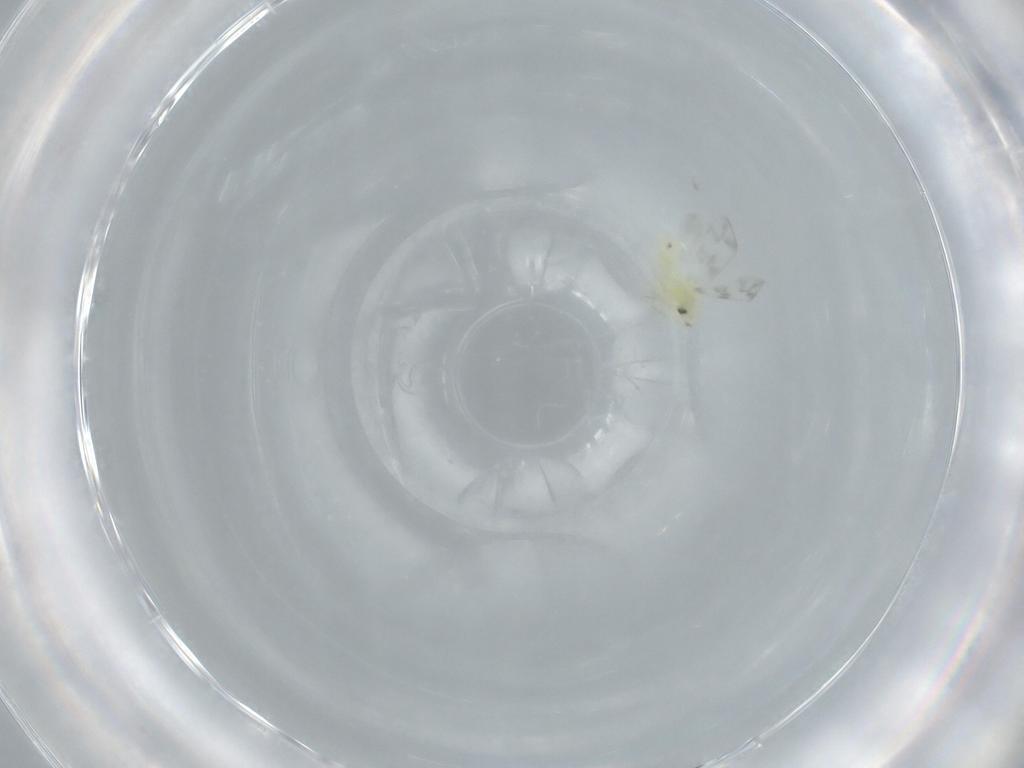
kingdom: Animalia
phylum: Arthropoda
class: Insecta
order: Hemiptera
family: Aleyrodidae
